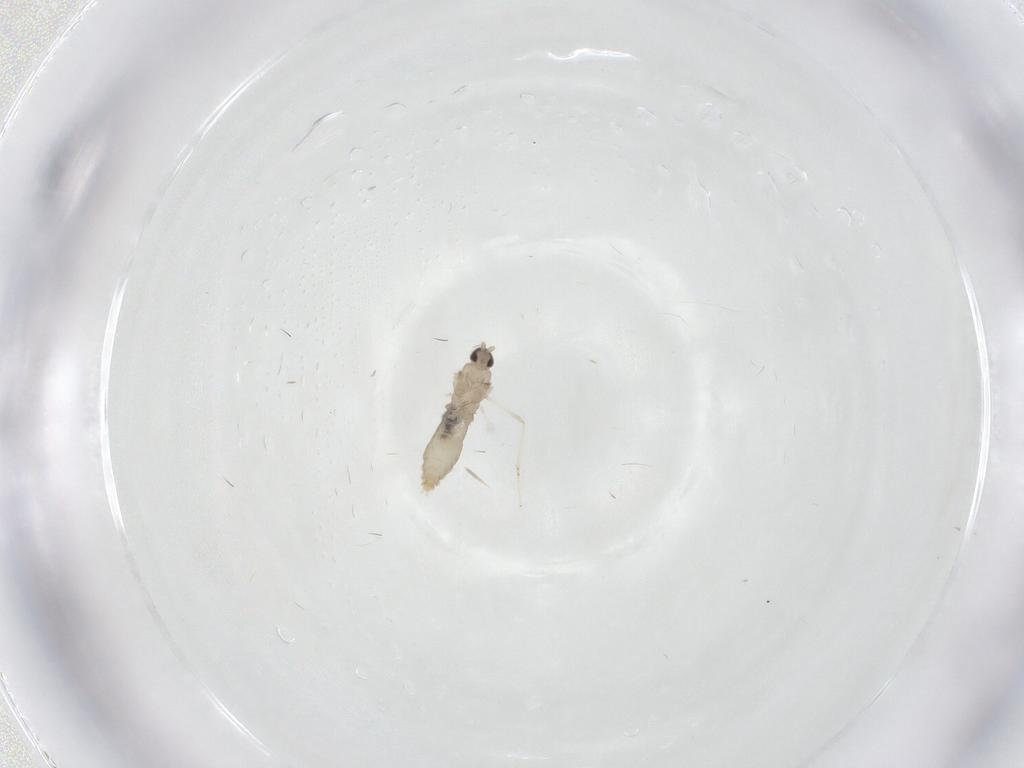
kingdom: Animalia
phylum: Arthropoda
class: Insecta
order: Diptera
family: Cecidomyiidae
